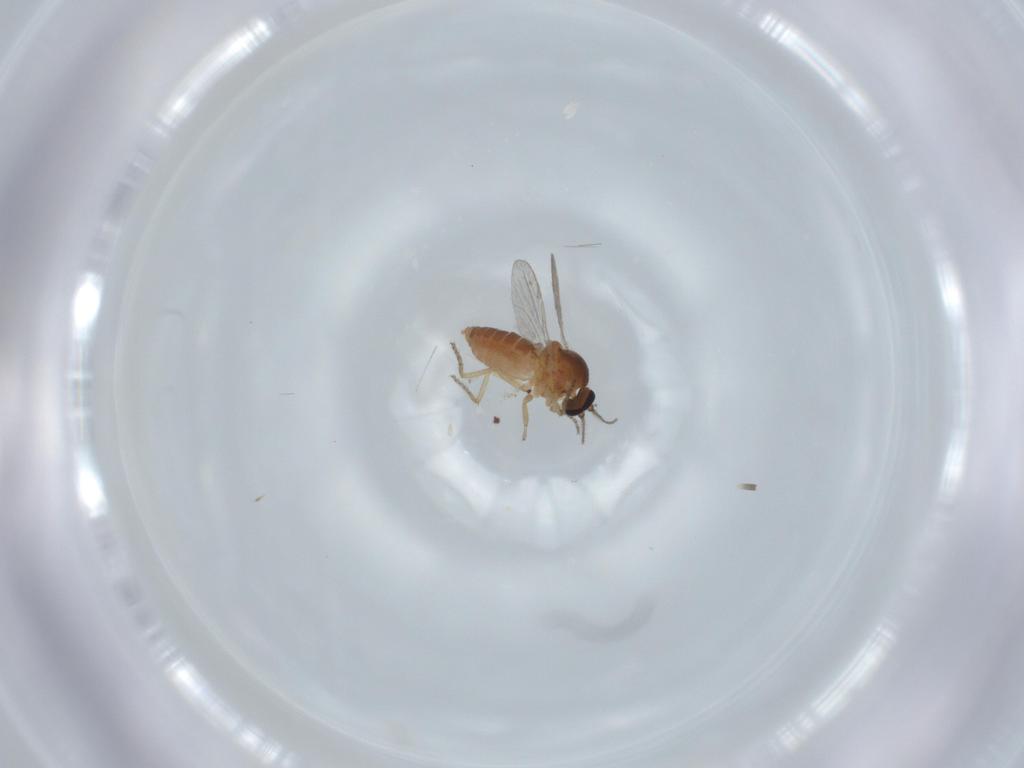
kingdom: Animalia
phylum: Arthropoda
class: Insecta
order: Diptera
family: Ceratopogonidae
